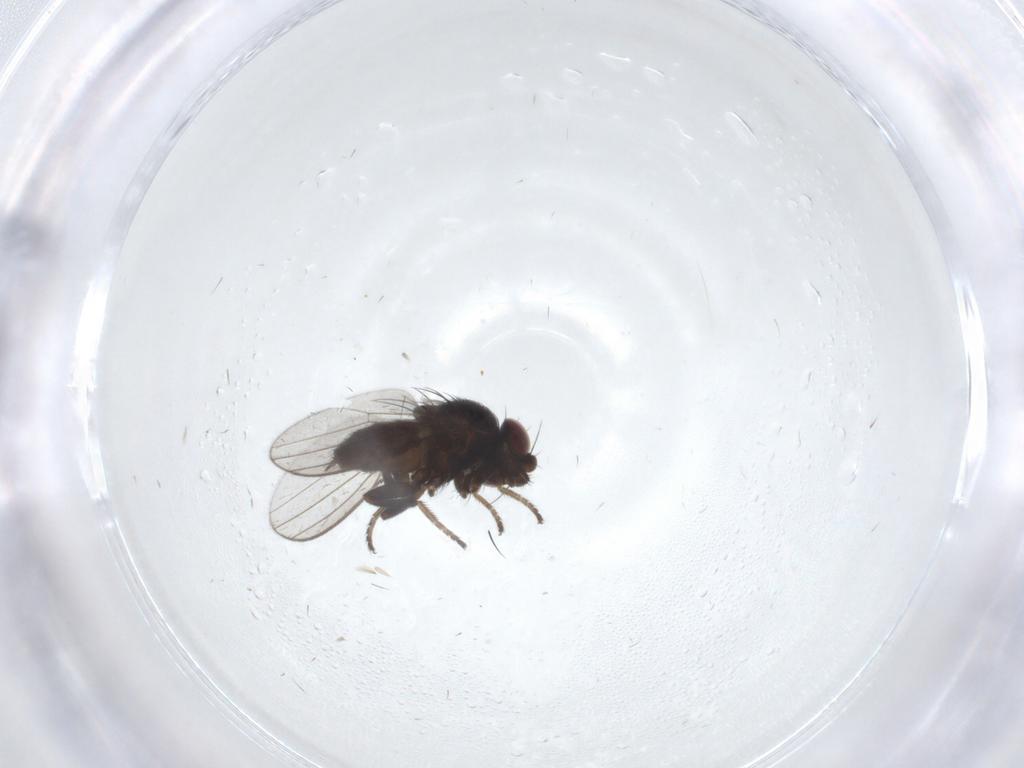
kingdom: Animalia
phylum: Arthropoda
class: Insecta
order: Diptera
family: Milichiidae
